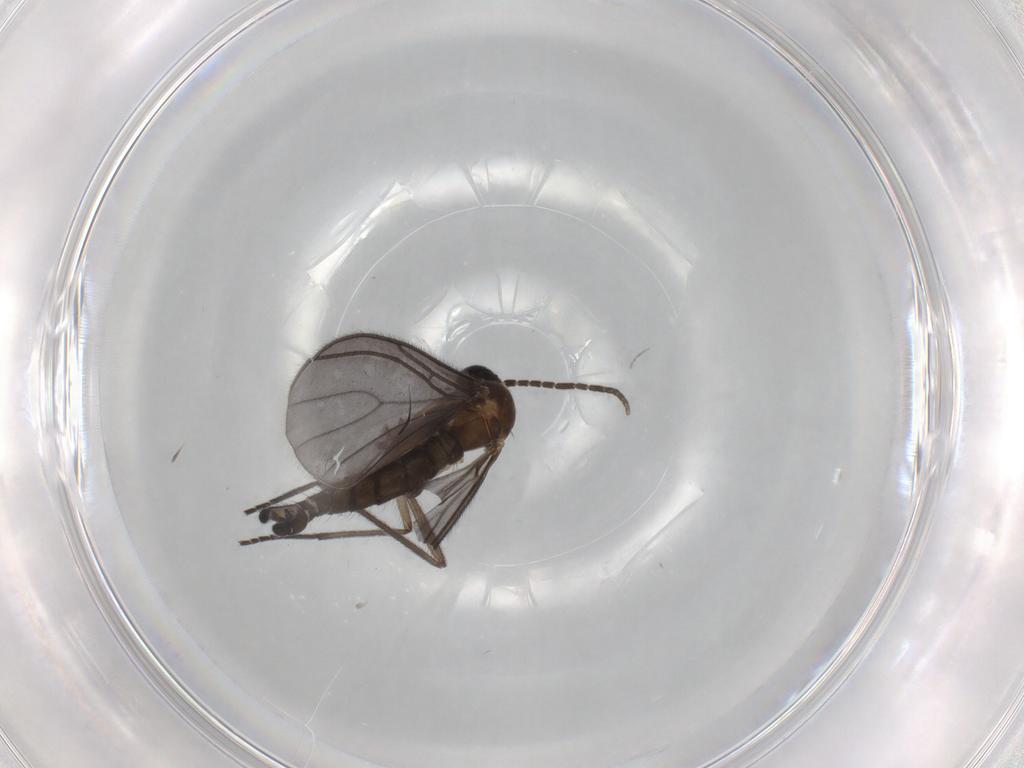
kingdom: Animalia
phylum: Arthropoda
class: Insecta
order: Diptera
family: Sciaridae
